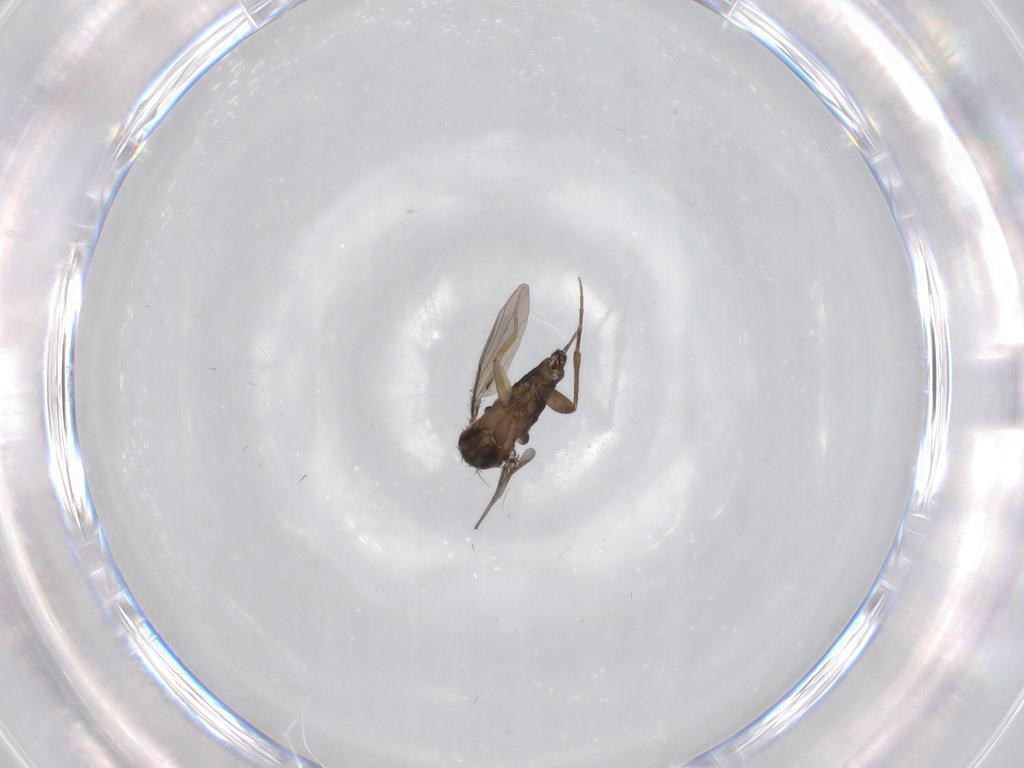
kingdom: Animalia
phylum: Arthropoda
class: Insecta
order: Diptera
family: Phoridae
